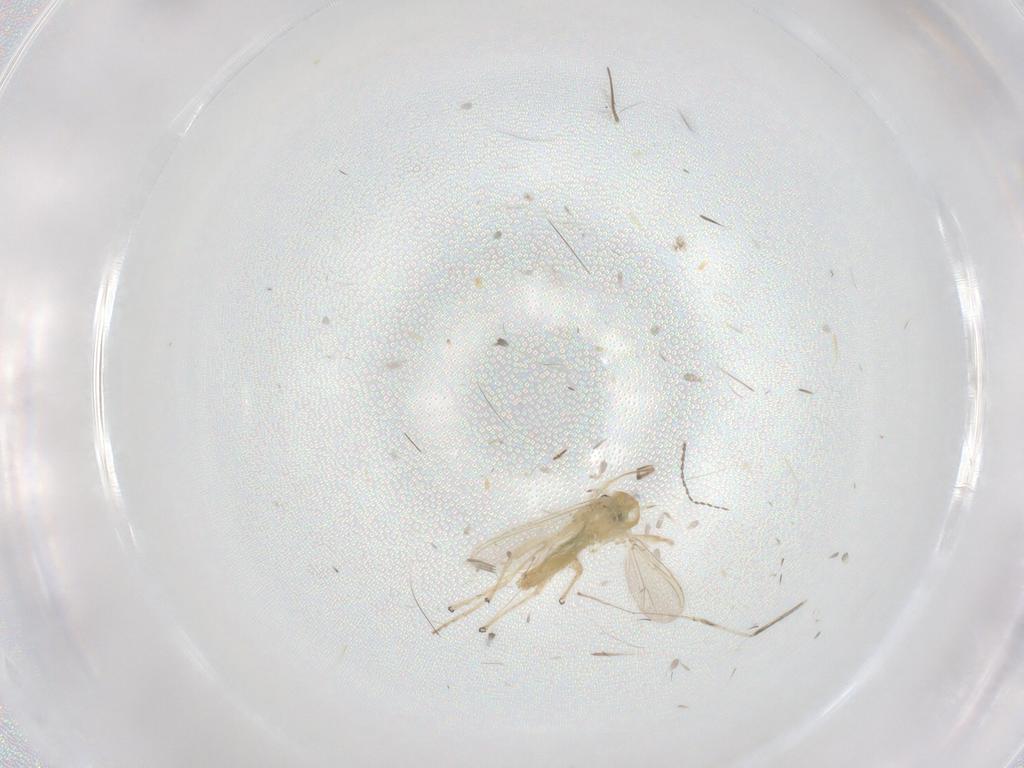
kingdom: Animalia
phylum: Arthropoda
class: Insecta
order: Diptera
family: Chironomidae
